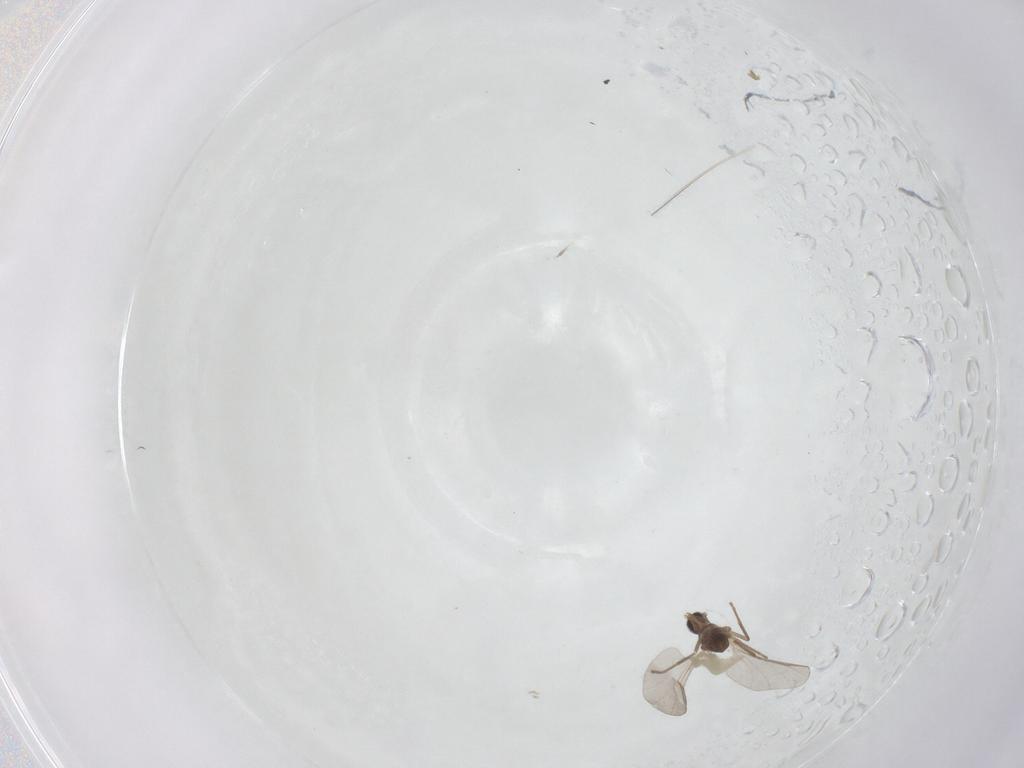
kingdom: Animalia
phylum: Arthropoda
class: Insecta
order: Diptera
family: Cecidomyiidae
